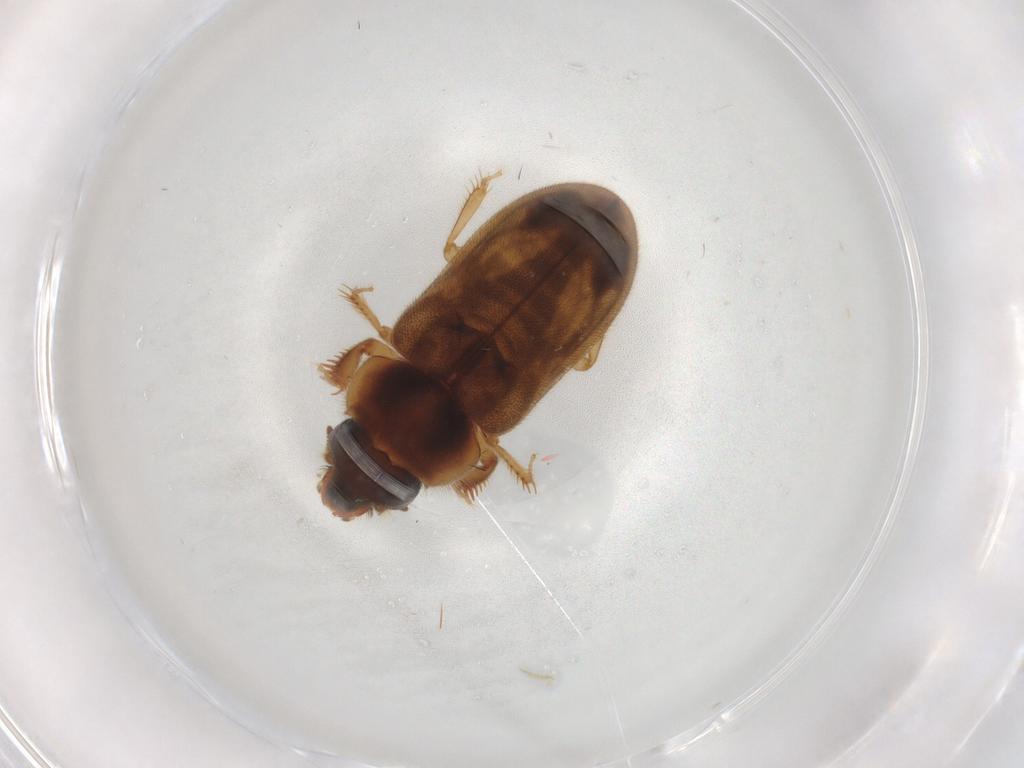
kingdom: Animalia
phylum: Arthropoda
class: Insecta
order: Coleoptera
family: Heteroceridae
